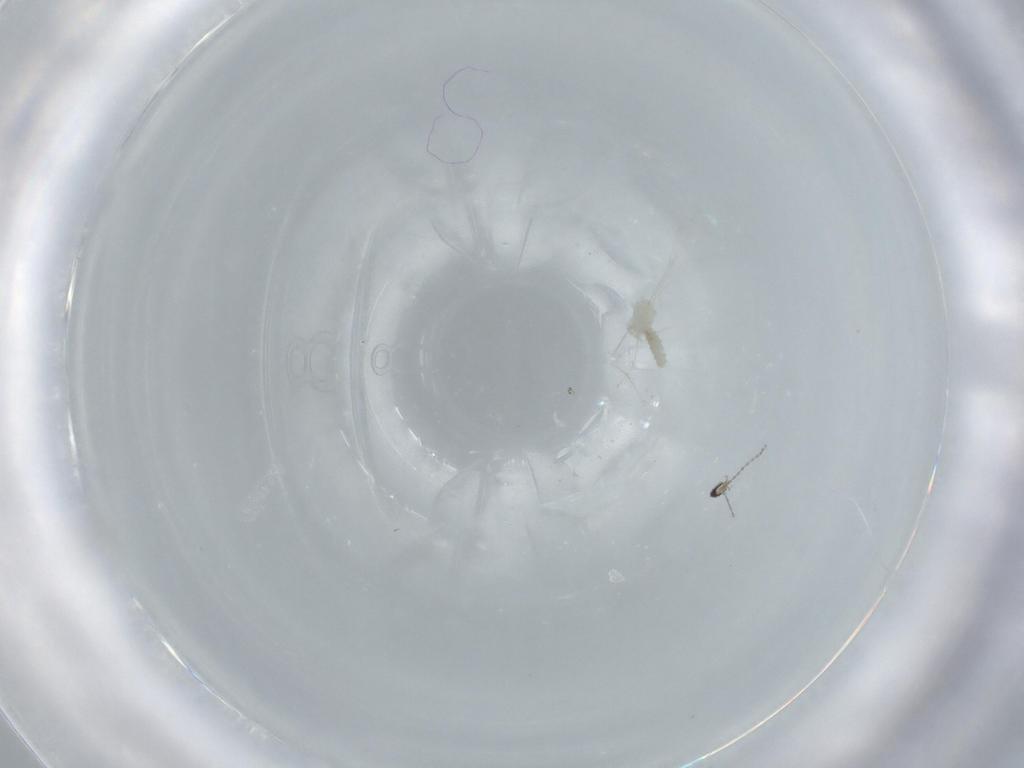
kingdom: Animalia
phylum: Arthropoda
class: Insecta
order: Diptera
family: Cecidomyiidae
